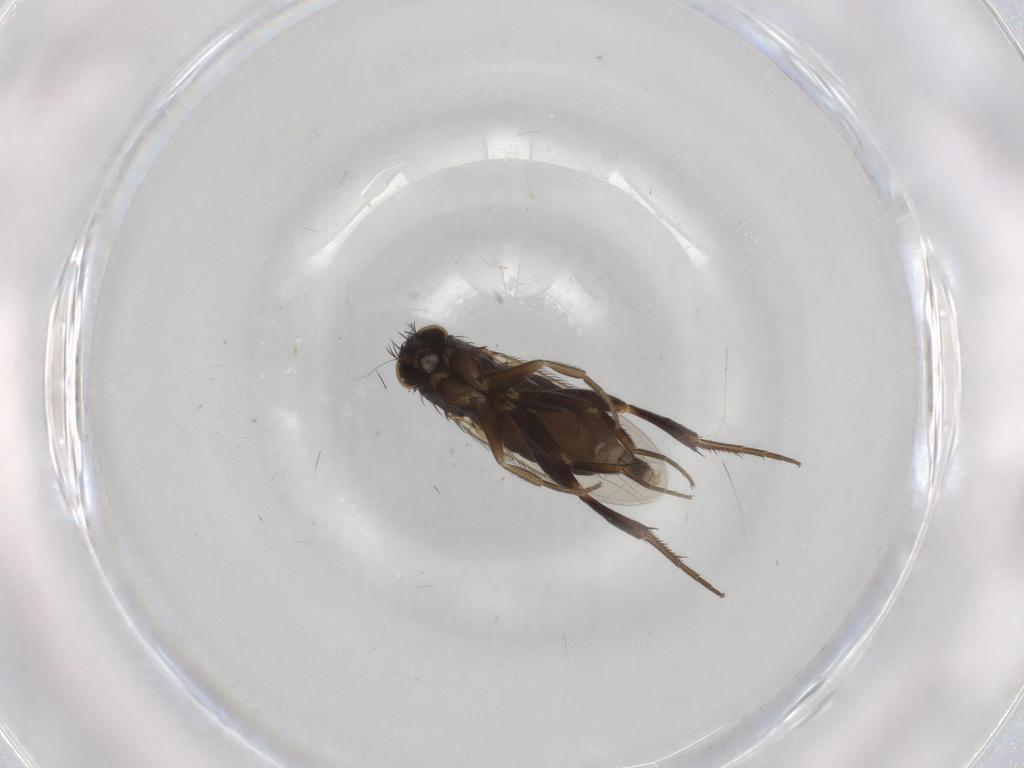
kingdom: Animalia
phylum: Arthropoda
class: Insecta
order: Diptera
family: Phoridae
